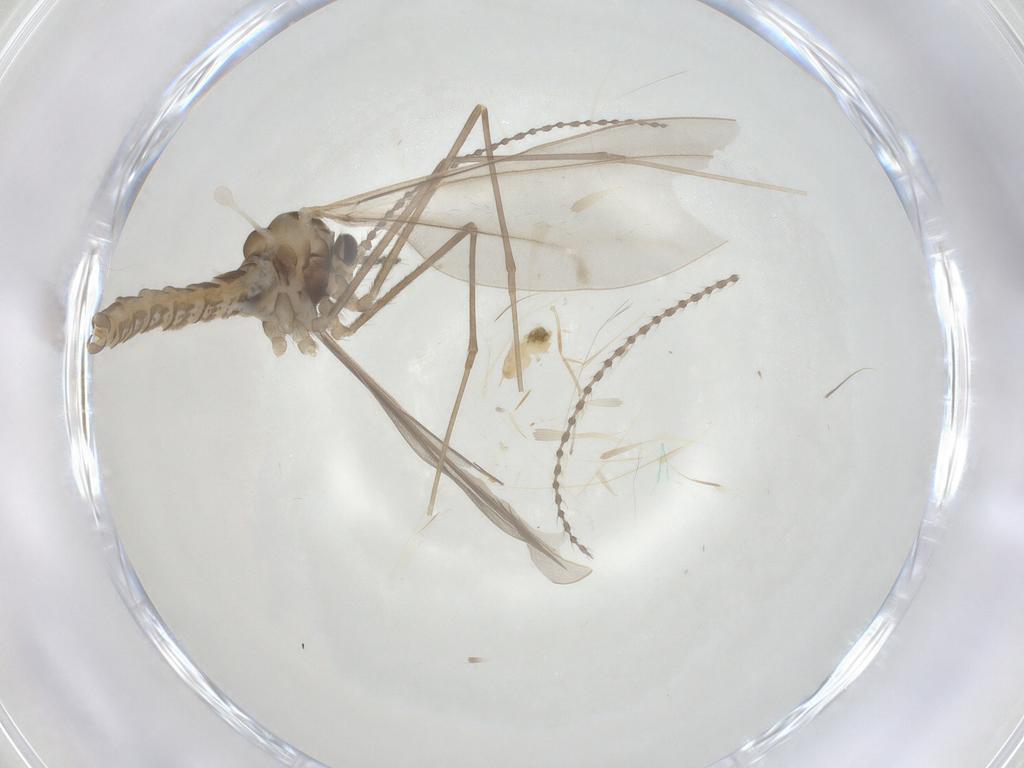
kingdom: Animalia
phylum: Arthropoda
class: Insecta
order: Diptera
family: Cecidomyiidae
